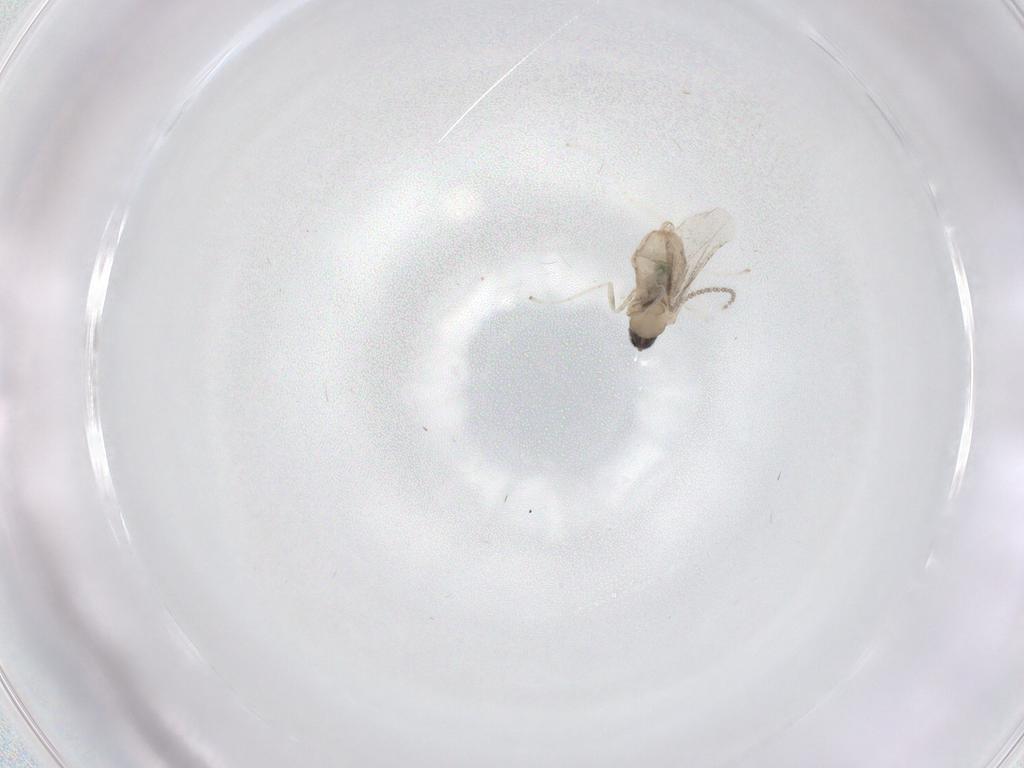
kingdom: Animalia
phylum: Arthropoda
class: Insecta
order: Diptera
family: Cecidomyiidae
